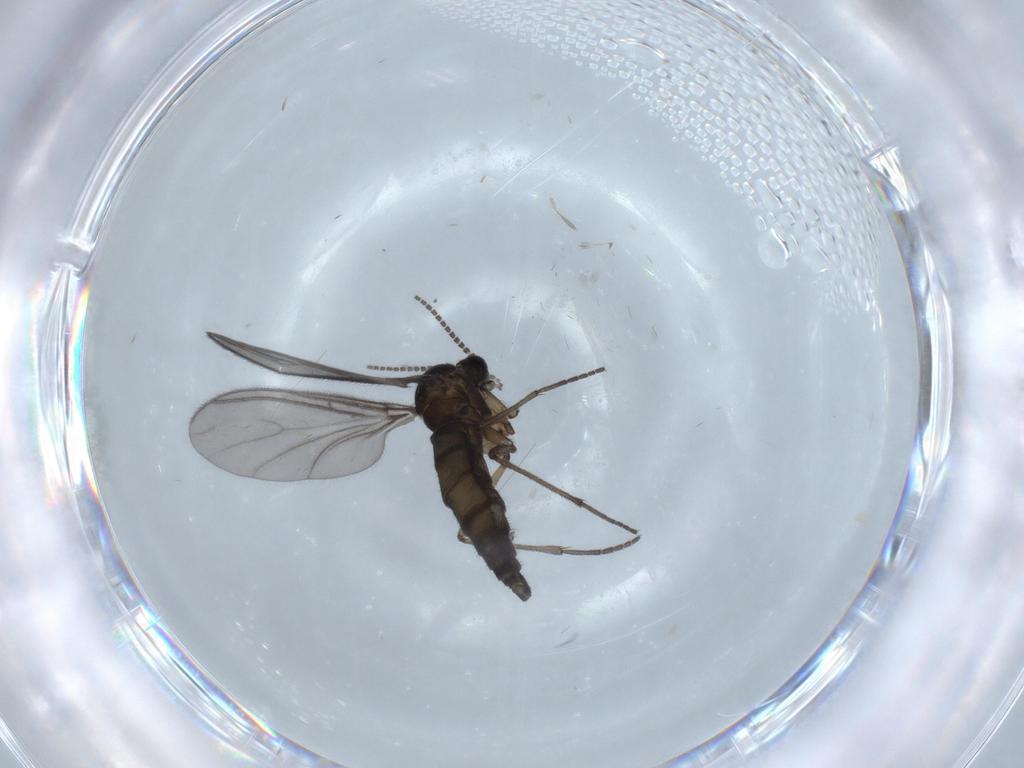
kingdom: Animalia
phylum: Arthropoda
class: Insecta
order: Diptera
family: Sciaridae
